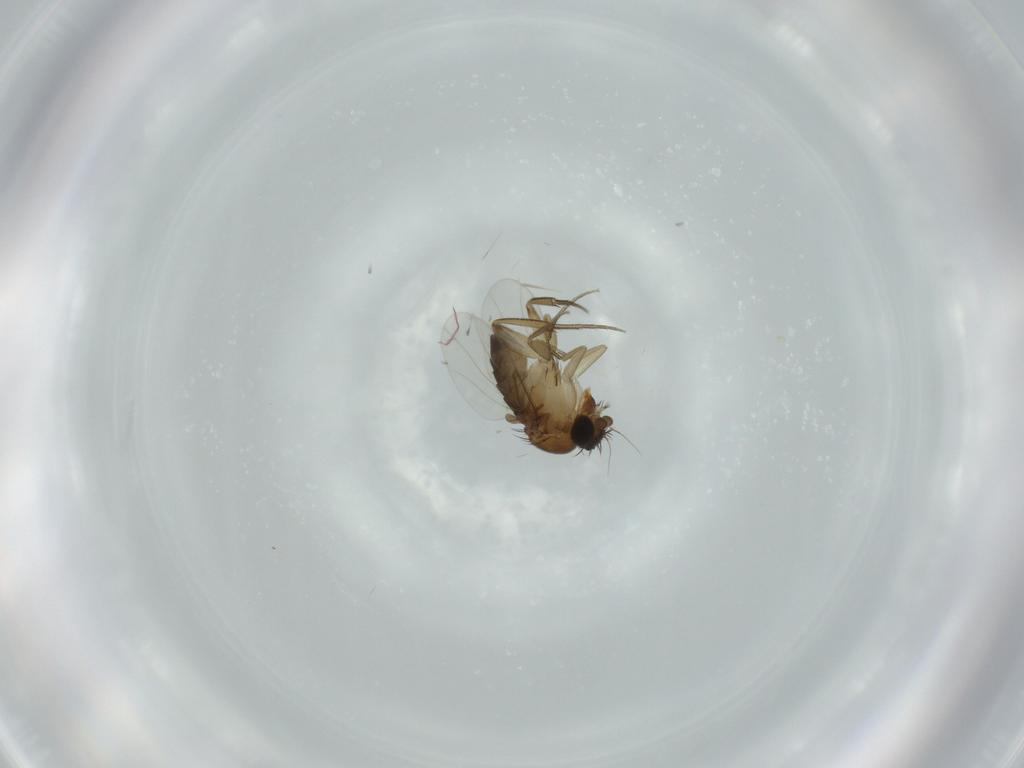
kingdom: Animalia
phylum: Arthropoda
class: Insecta
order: Diptera
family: Phoridae
